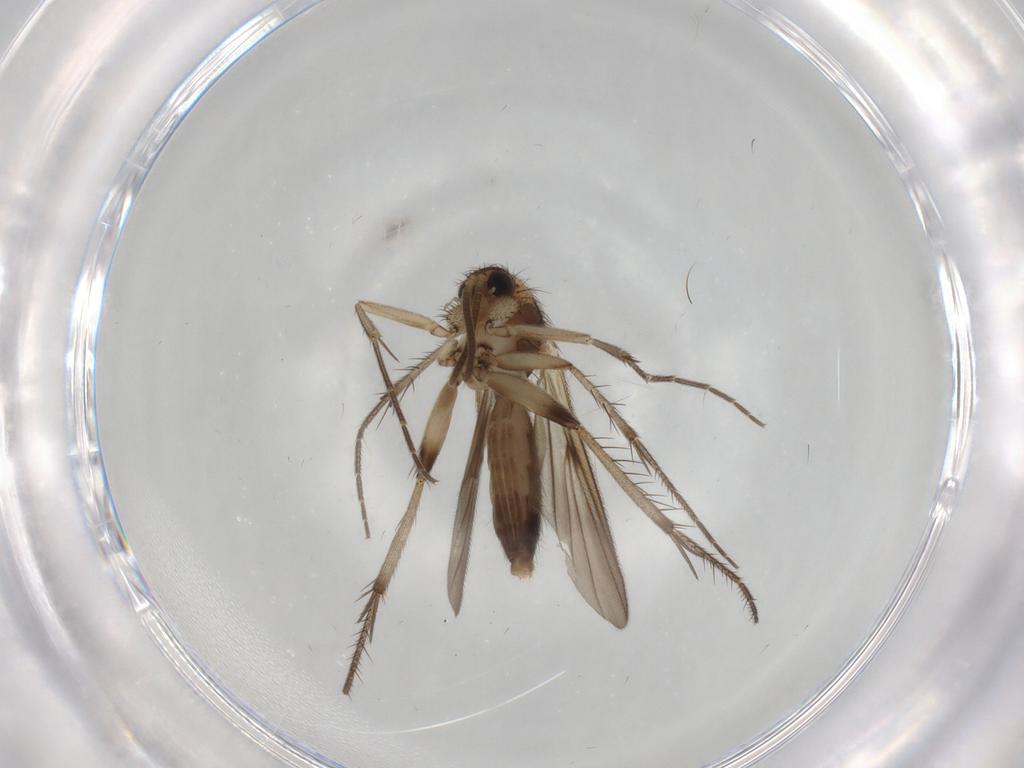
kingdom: Animalia
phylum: Arthropoda
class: Insecta
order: Diptera
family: Mycetophilidae
